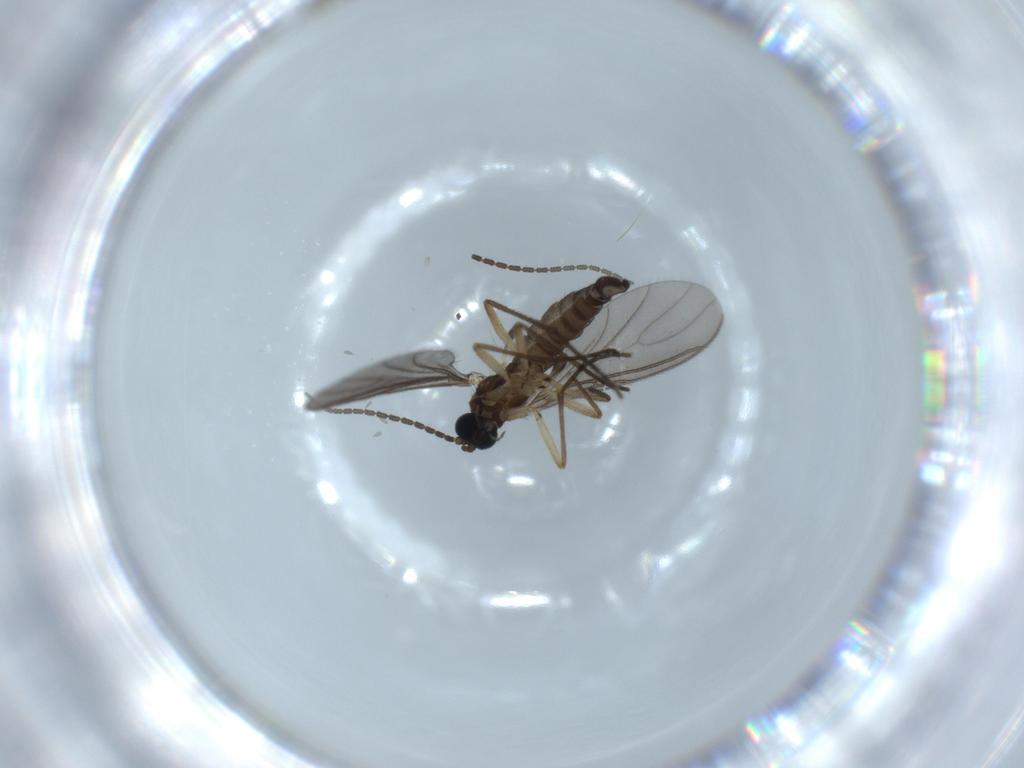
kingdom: Animalia
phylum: Arthropoda
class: Insecta
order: Diptera
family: Sciaridae
